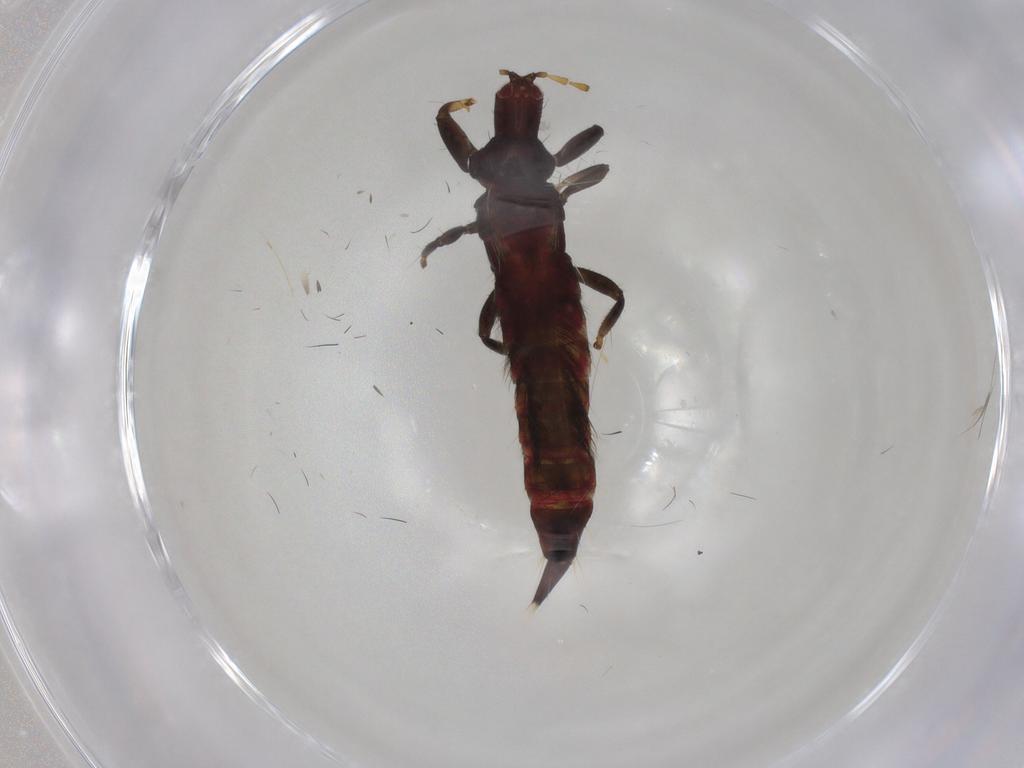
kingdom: Animalia
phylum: Arthropoda
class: Insecta
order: Thysanoptera
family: Phlaeothripidae
